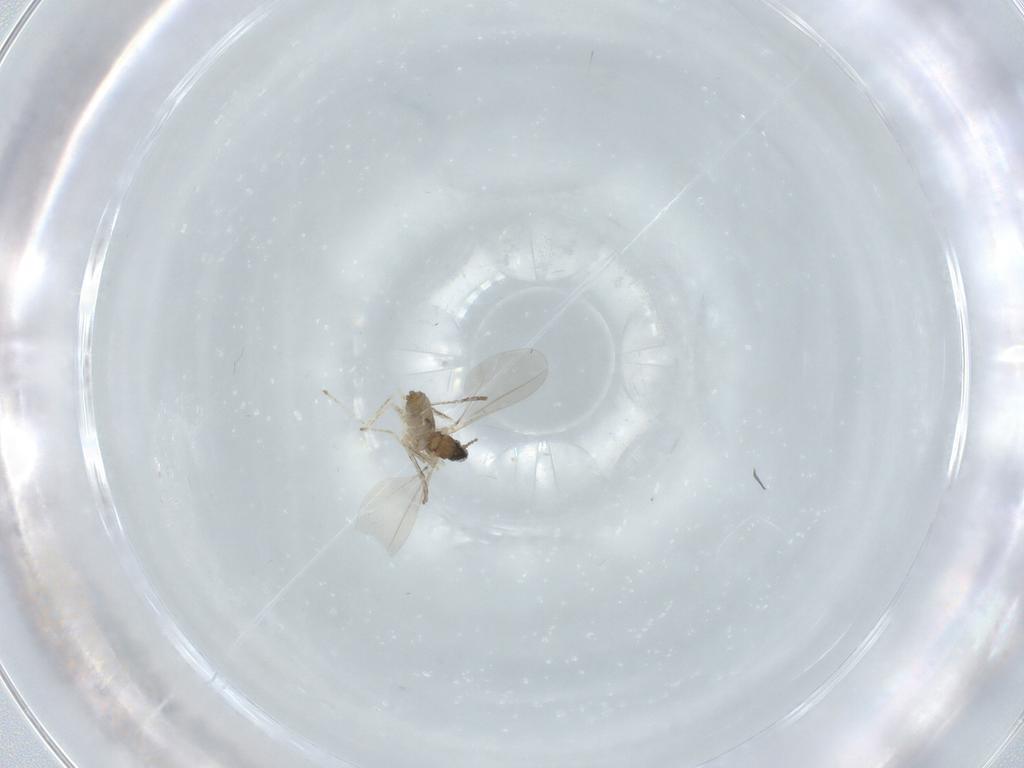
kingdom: Animalia
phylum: Arthropoda
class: Insecta
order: Diptera
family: Cecidomyiidae
